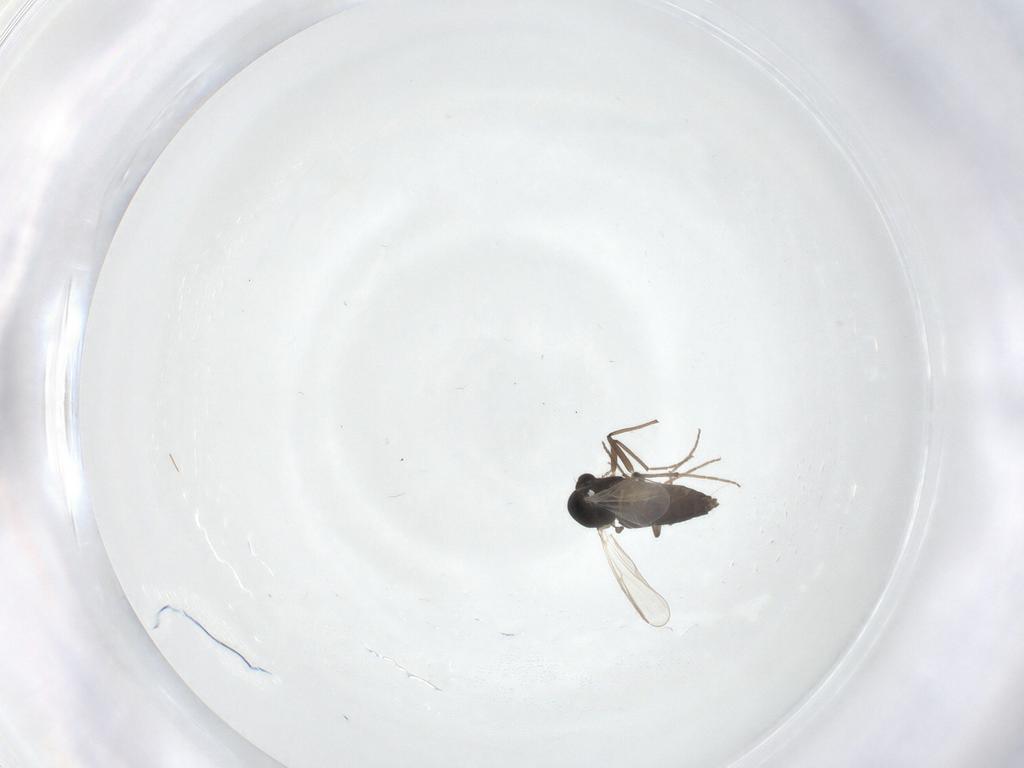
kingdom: Animalia
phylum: Arthropoda
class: Insecta
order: Diptera
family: Chironomidae
